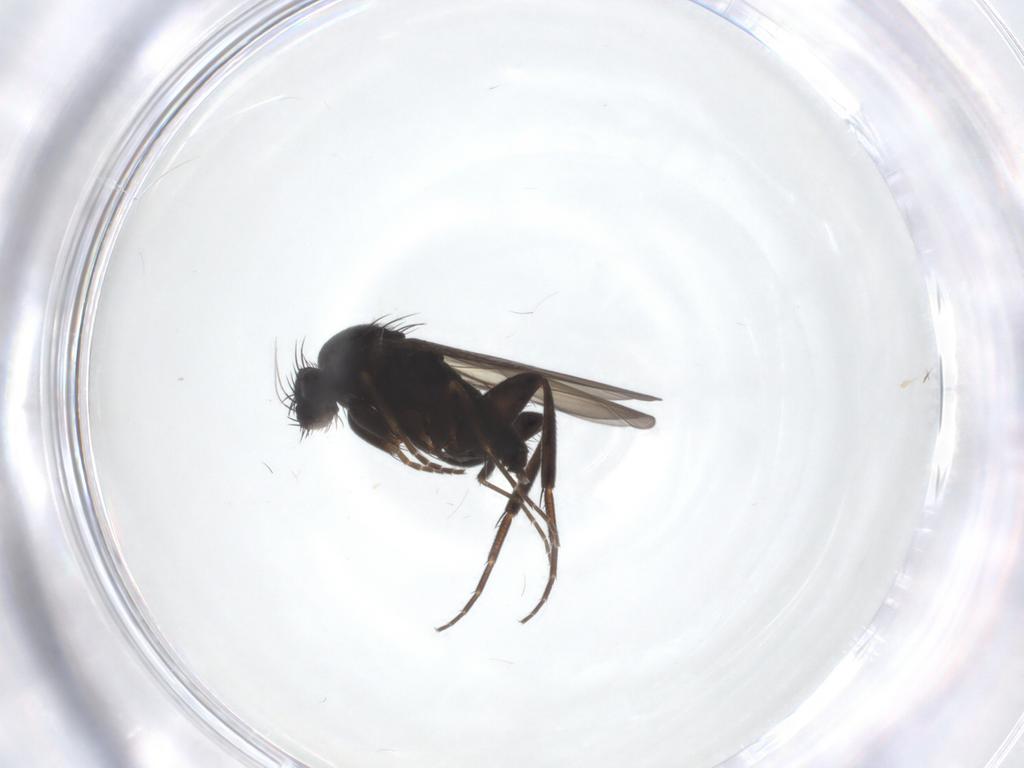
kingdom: Animalia
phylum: Arthropoda
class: Insecta
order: Diptera
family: Phoridae
